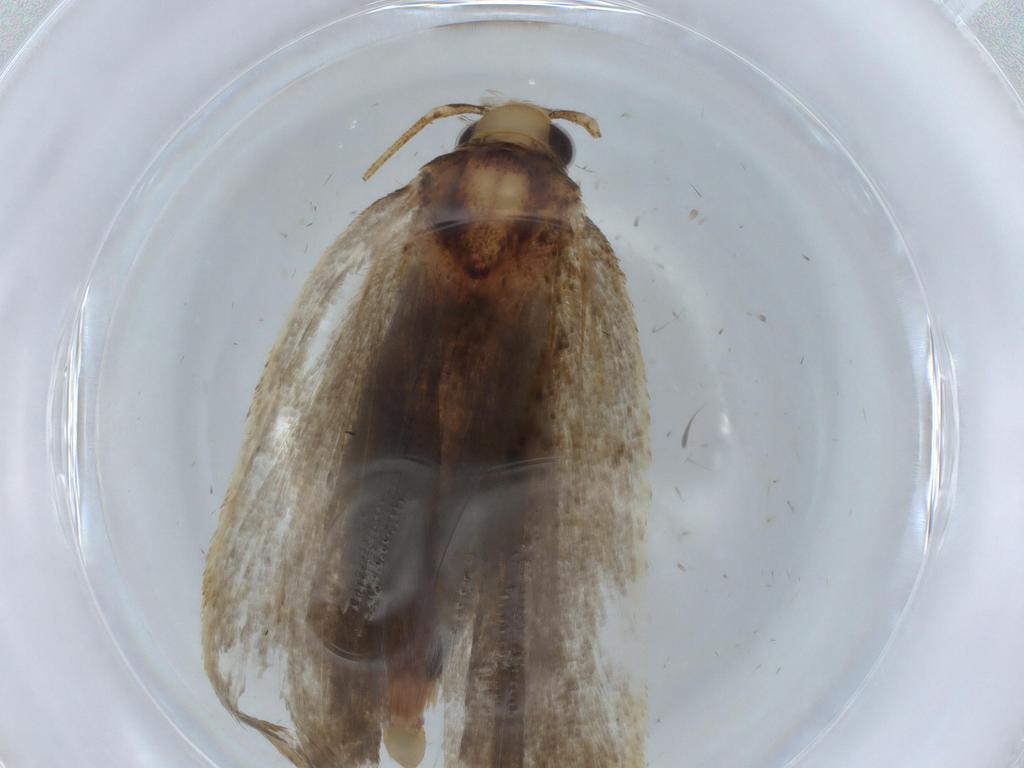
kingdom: Animalia
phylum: Arthropoda
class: Insecta
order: Lepidoptera
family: Autostichidae
